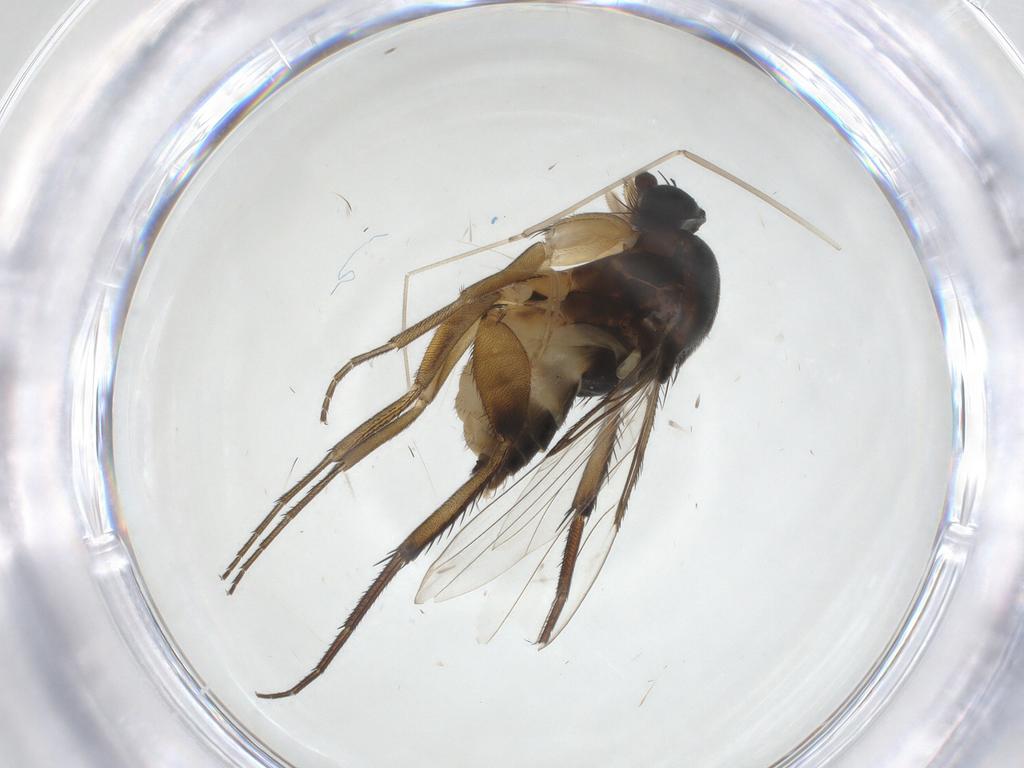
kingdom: Animalia
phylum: Arthropoda
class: Insecta
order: Diptera
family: Phoridae
